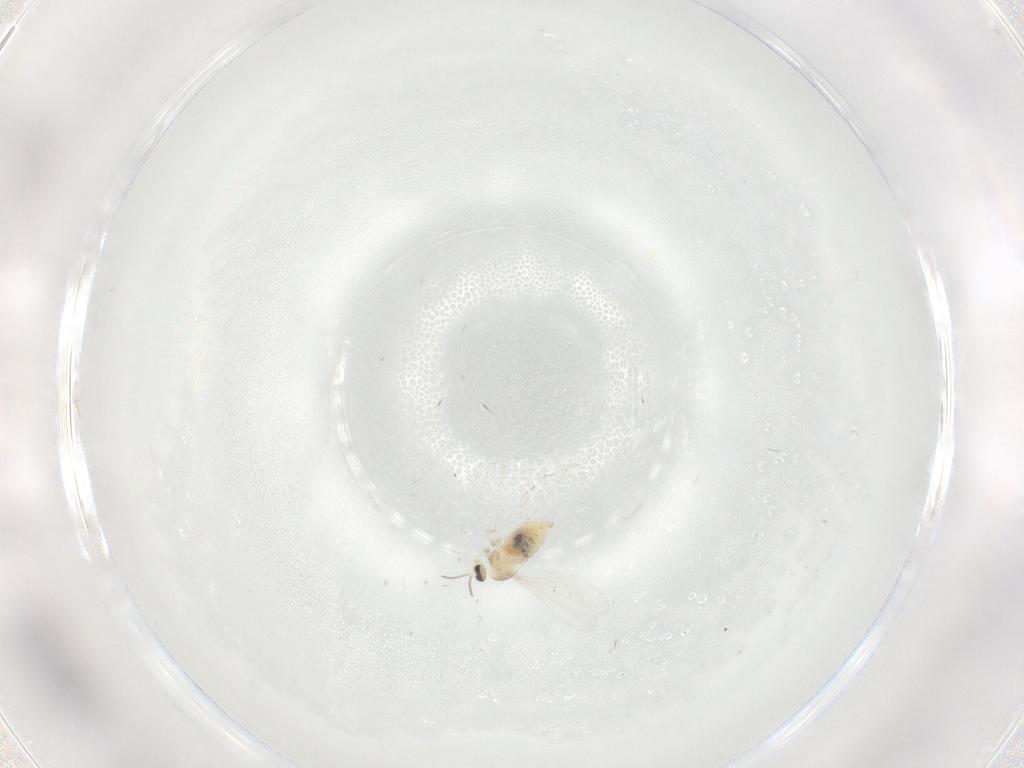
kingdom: Animalia
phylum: Arthropoda
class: Insecta
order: Diptera
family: Cecidomyiidae
